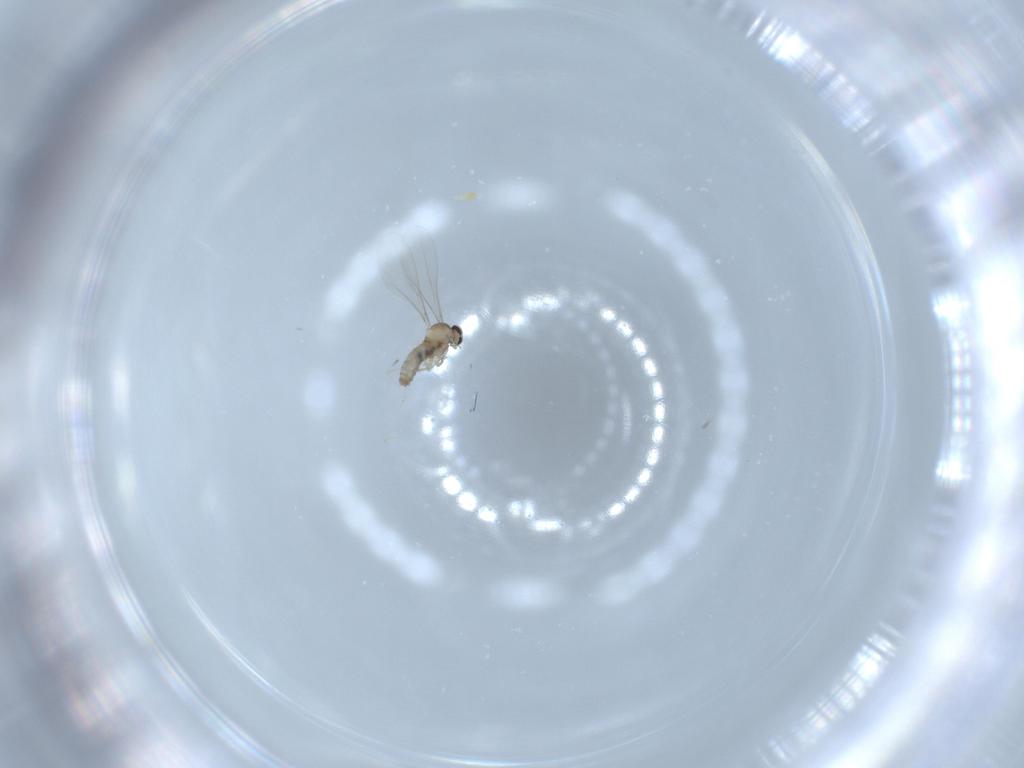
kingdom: Animalia
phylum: Arthropoda
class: Insecta
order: Diptera
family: Cecidomyiidae
